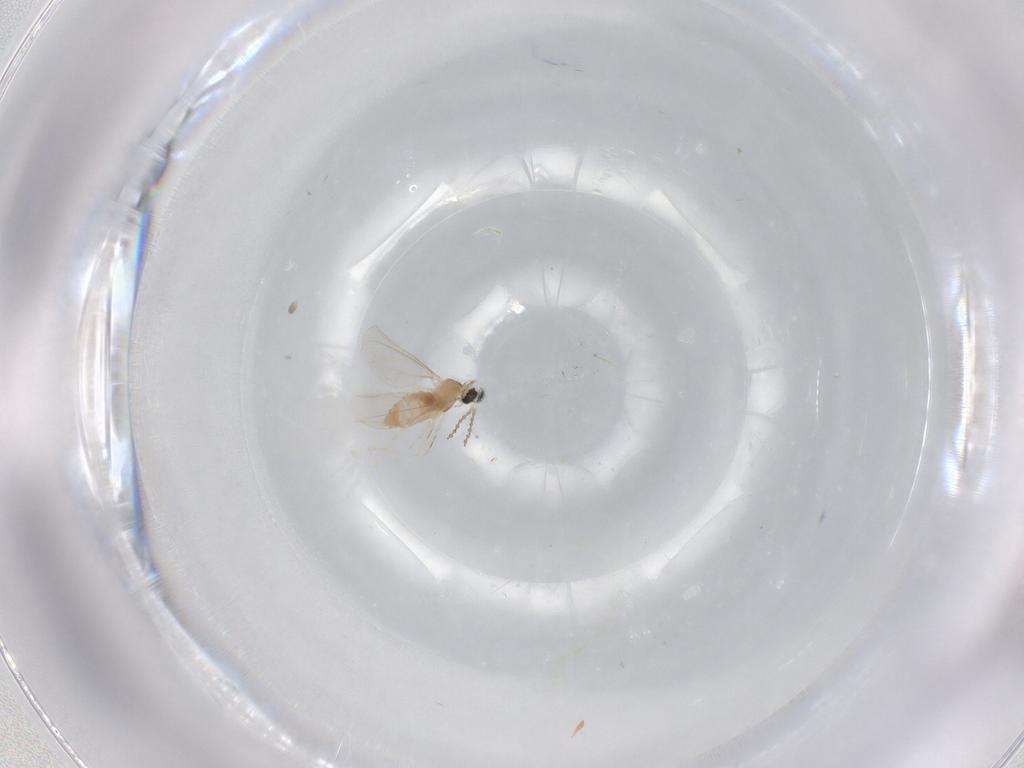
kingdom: Animalia
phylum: Arthropoda
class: Insecta
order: Diptera
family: Cecidomyiidae
